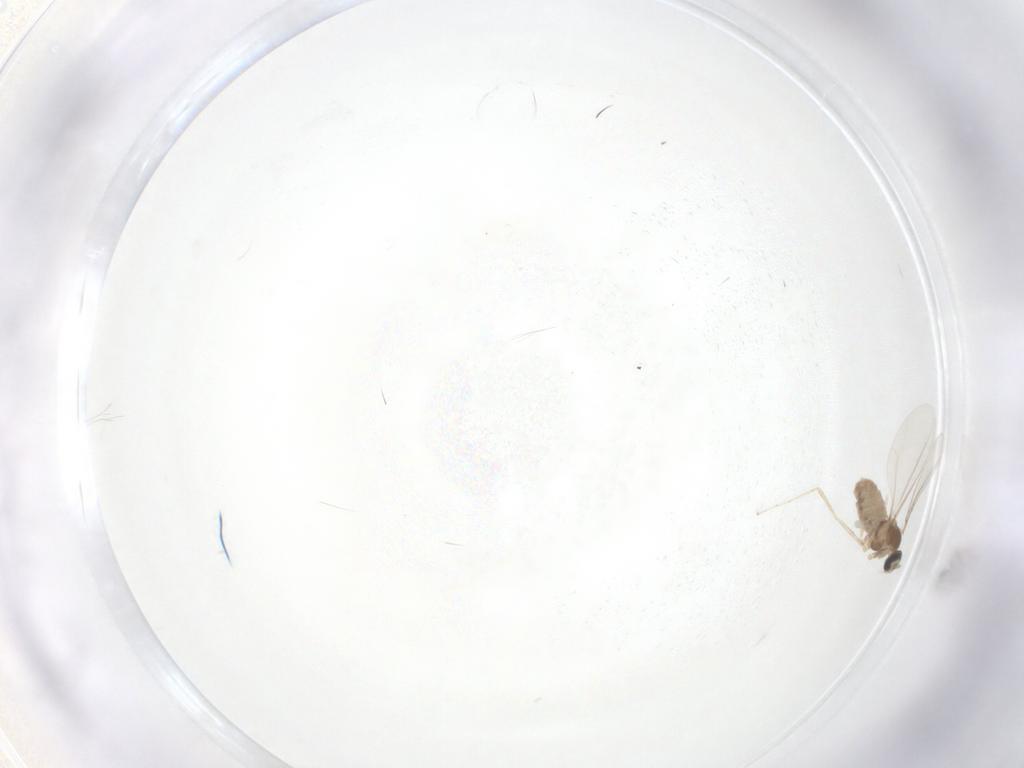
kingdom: Animalia
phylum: Arthropoda
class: Insecta
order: Diptera
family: Cecidomyiidae
